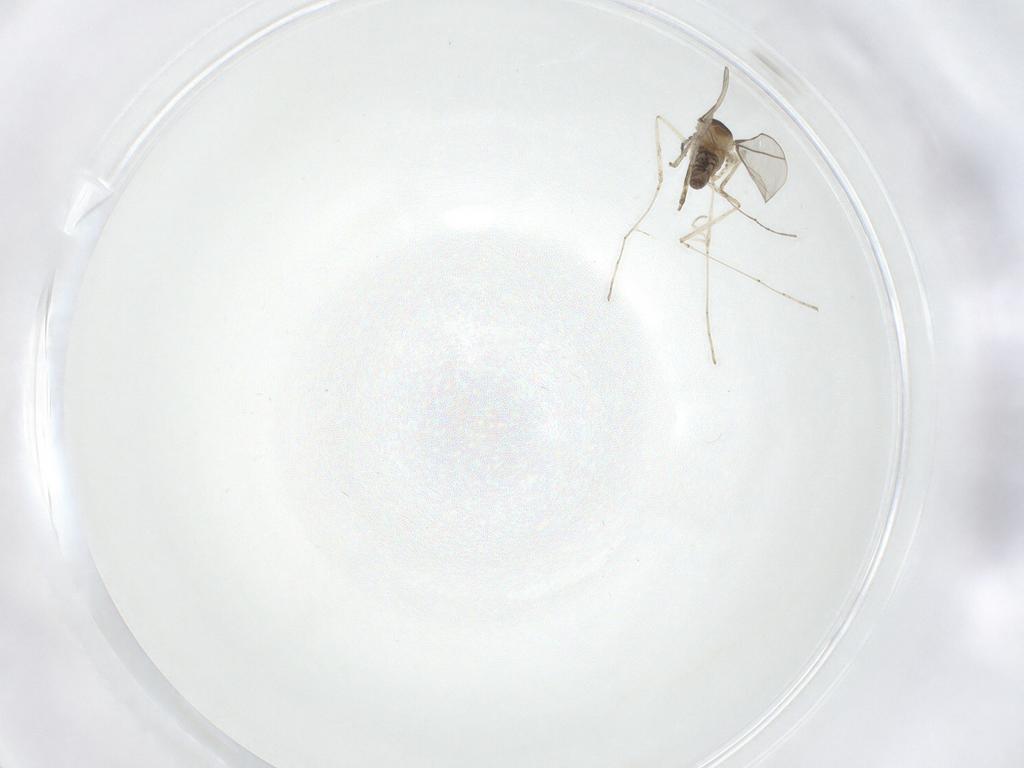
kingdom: Animalia
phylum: Arthropoda
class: Insecta
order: Diptera
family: Cecidomyiidae
